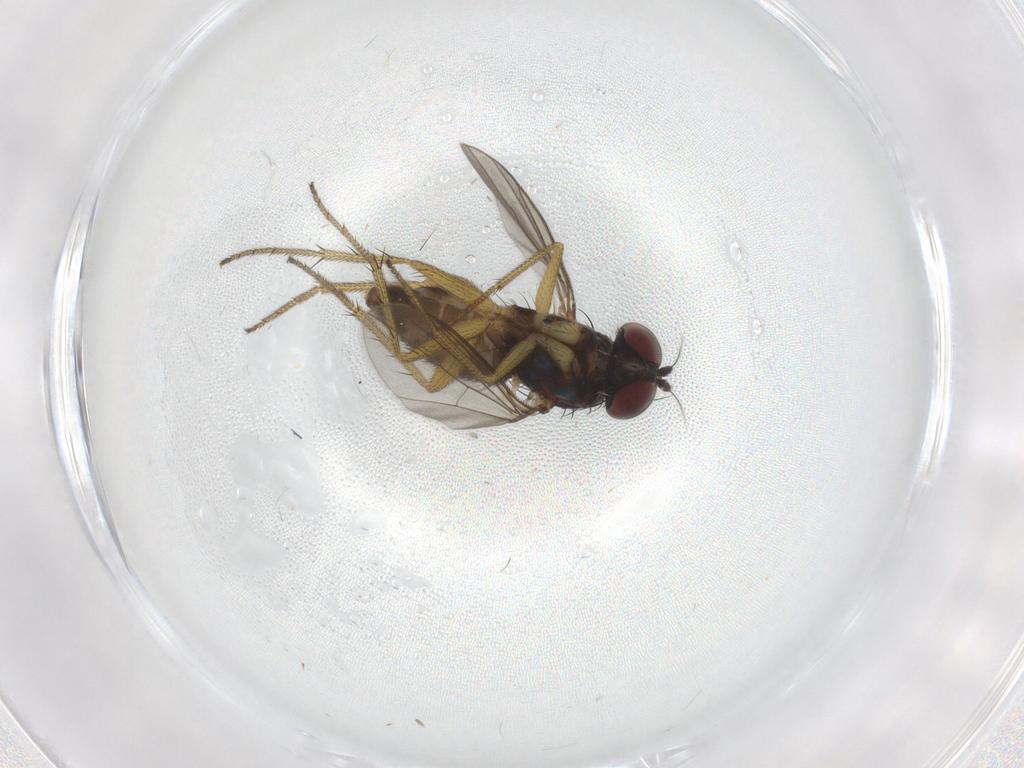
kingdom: Animalia
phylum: Arthropoda
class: Insecta
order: Diptera
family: Dolichopodidae
